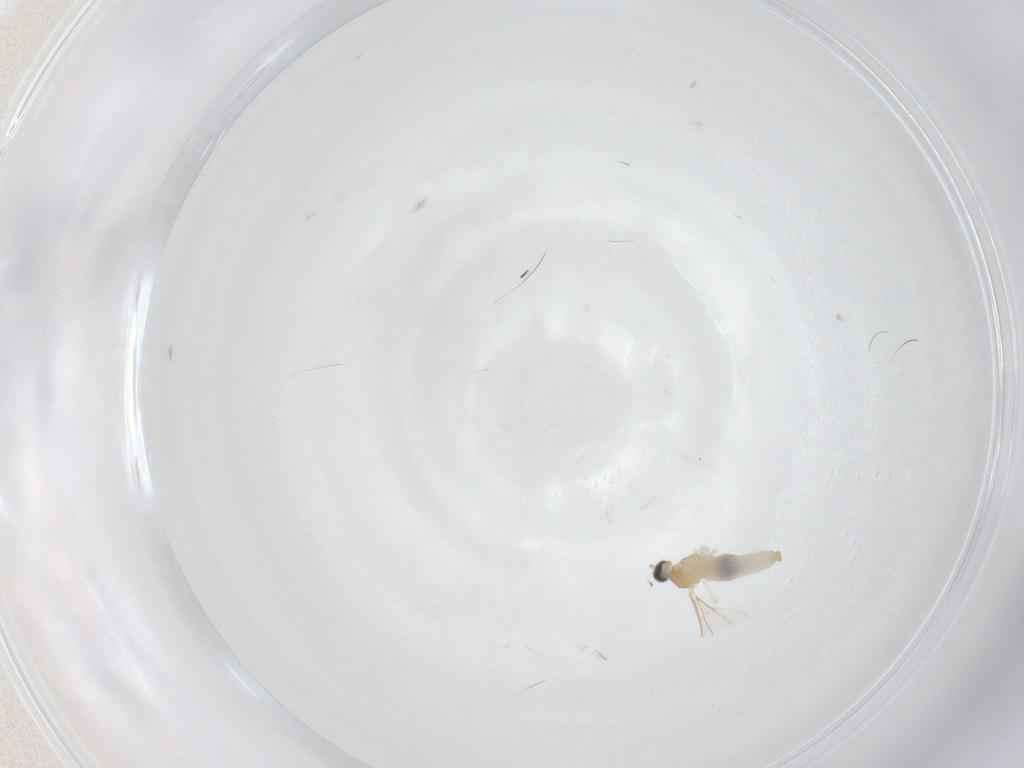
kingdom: Animalia
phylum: Arthropoda
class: Insecta
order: Diptera
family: Cecidomyiidae
